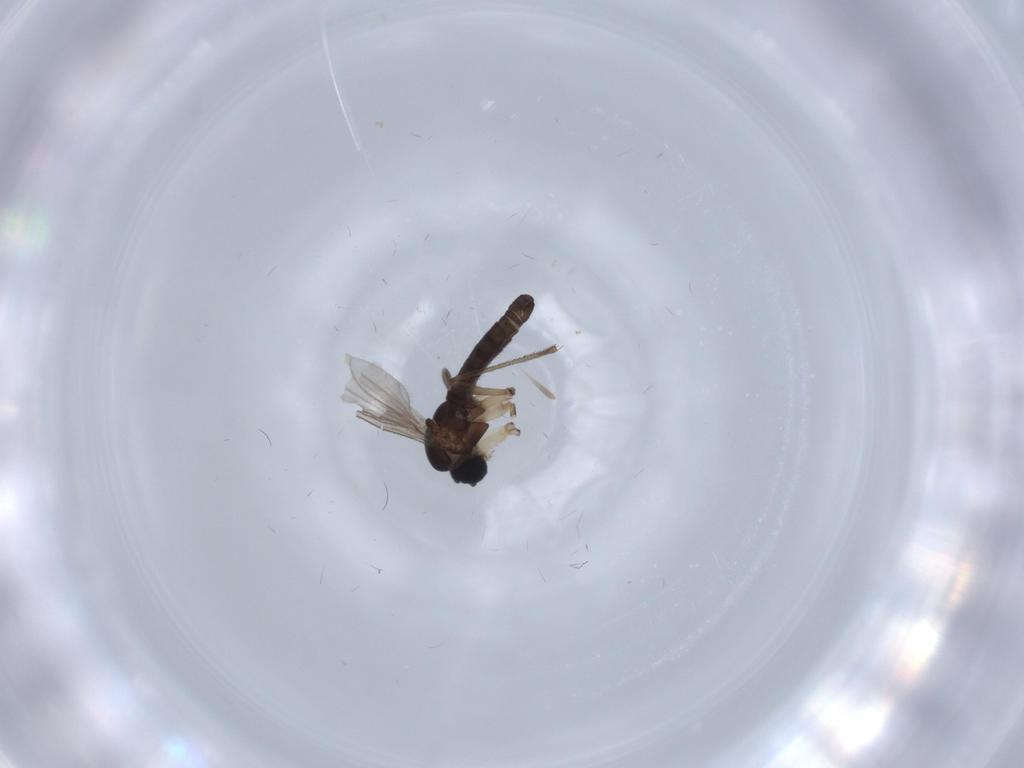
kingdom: Animalia
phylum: Arthropoda
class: Insecta
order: Diptera
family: Sciaridae
